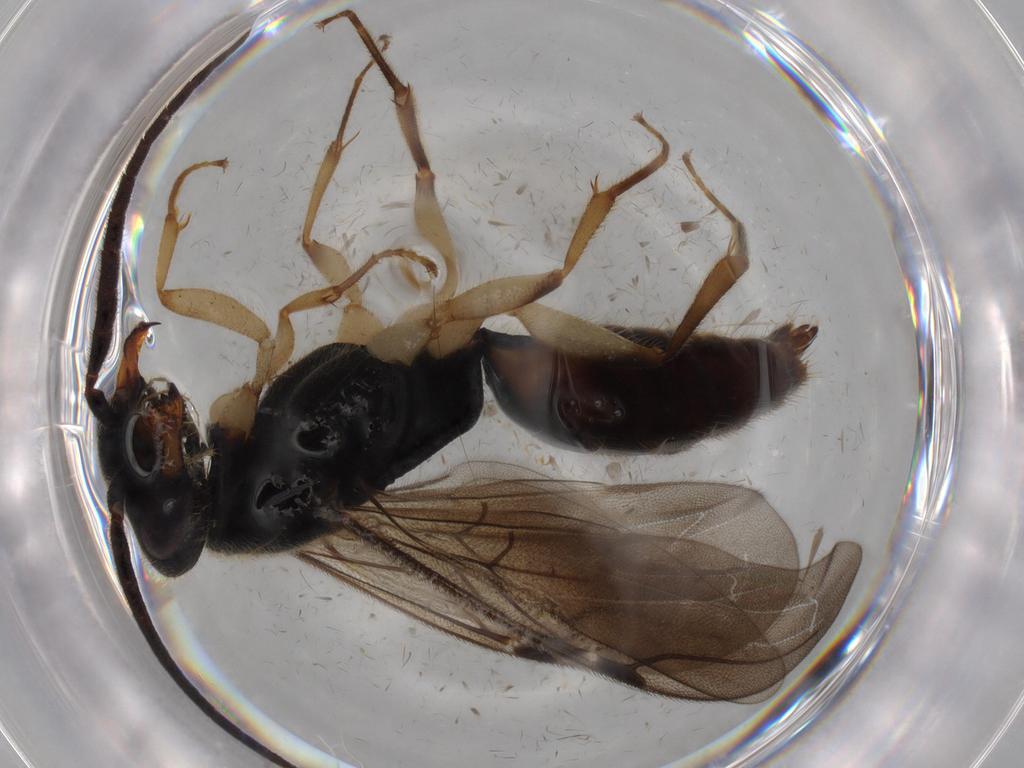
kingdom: Animalia
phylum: Arthropoda
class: Insecta
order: Hymenoptera
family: Bethylidae
